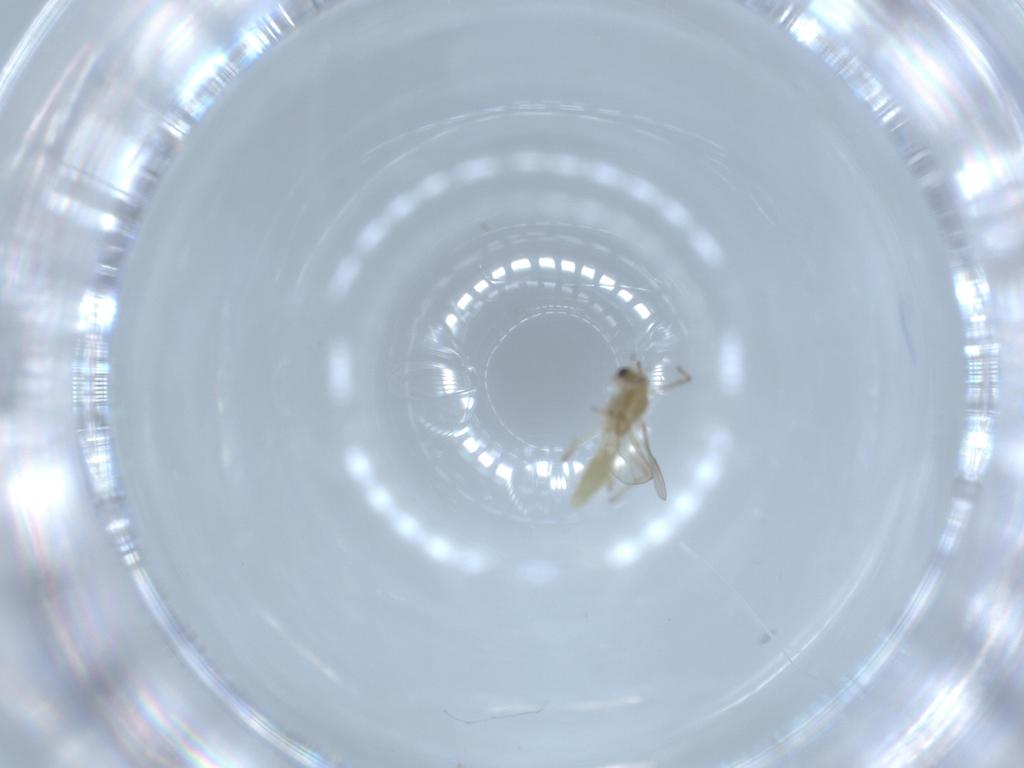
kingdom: Animalia
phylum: Arthropoda
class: Insecta
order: Diptera
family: Chironomidae
